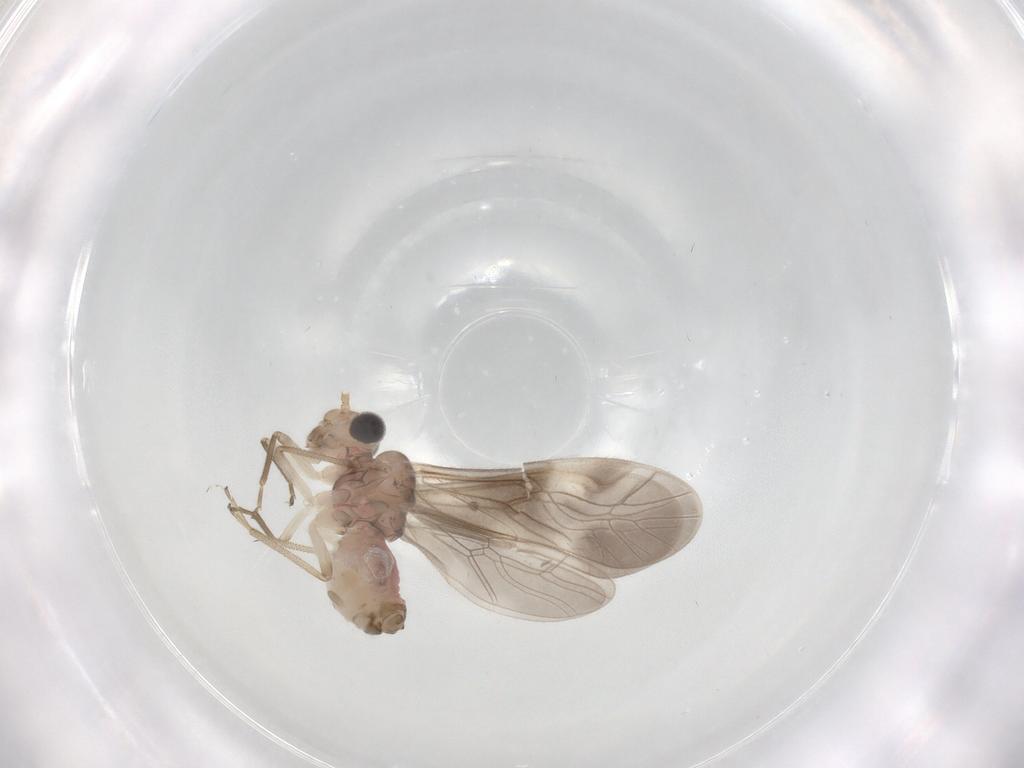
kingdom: Animalia
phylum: Arthropoda
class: Insecta
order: Psocodea
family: Caeciliusidae
